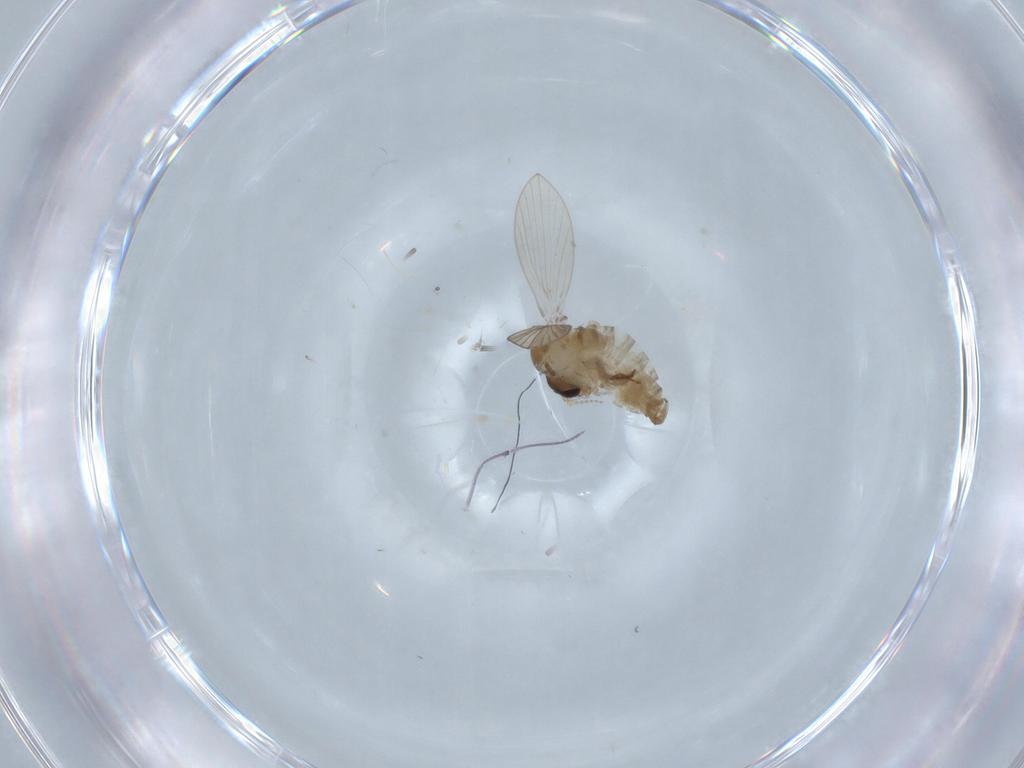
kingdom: Animalia
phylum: Arthropoda
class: Insecta
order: Diptera
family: Psychodidae
